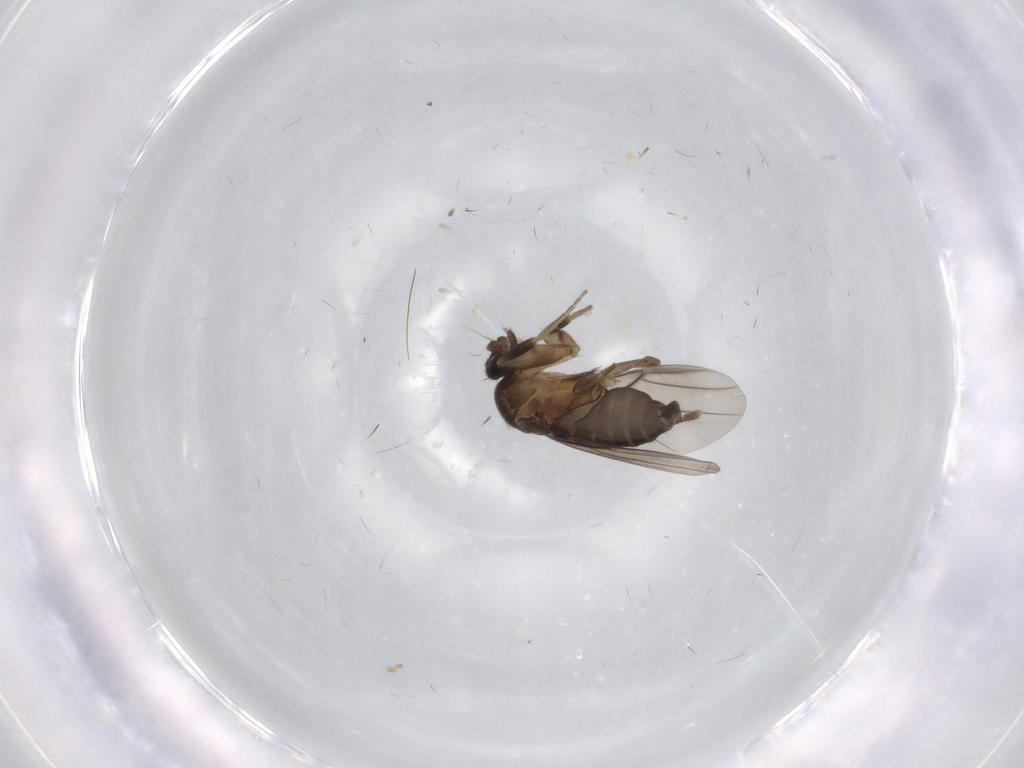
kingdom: Animalia
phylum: Arthropoda
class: Insecta
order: Diptera
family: Phoridae
